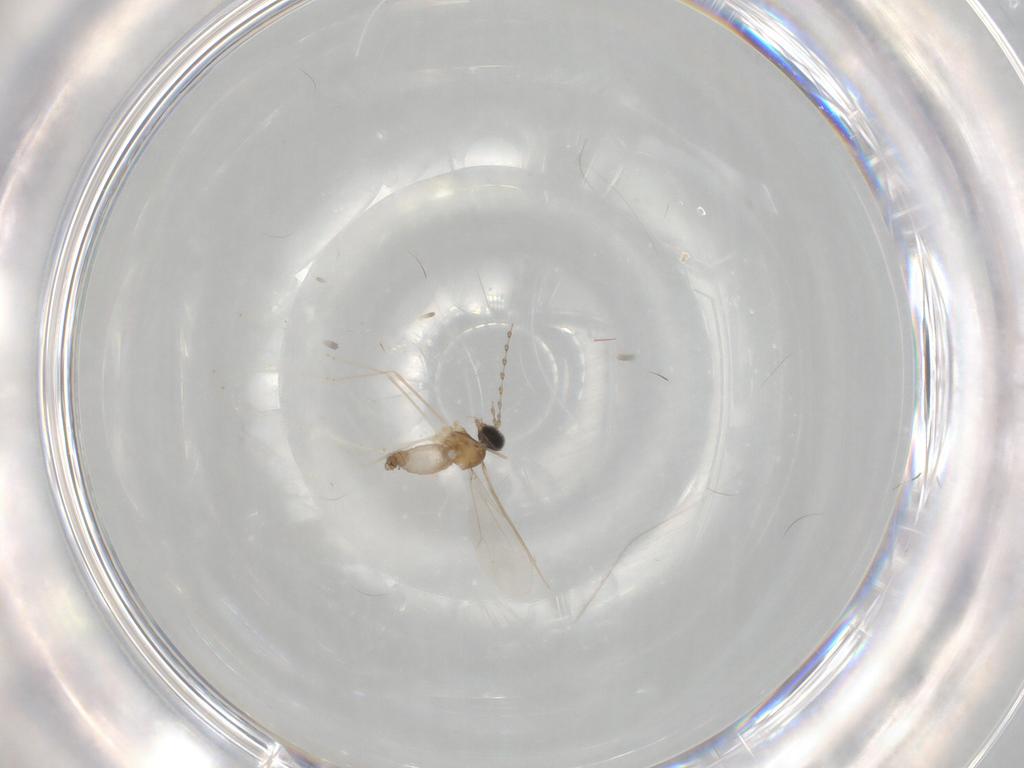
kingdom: Animalia
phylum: Arthropoda
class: Insecta
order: Diptera
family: Cecidomyiidae
